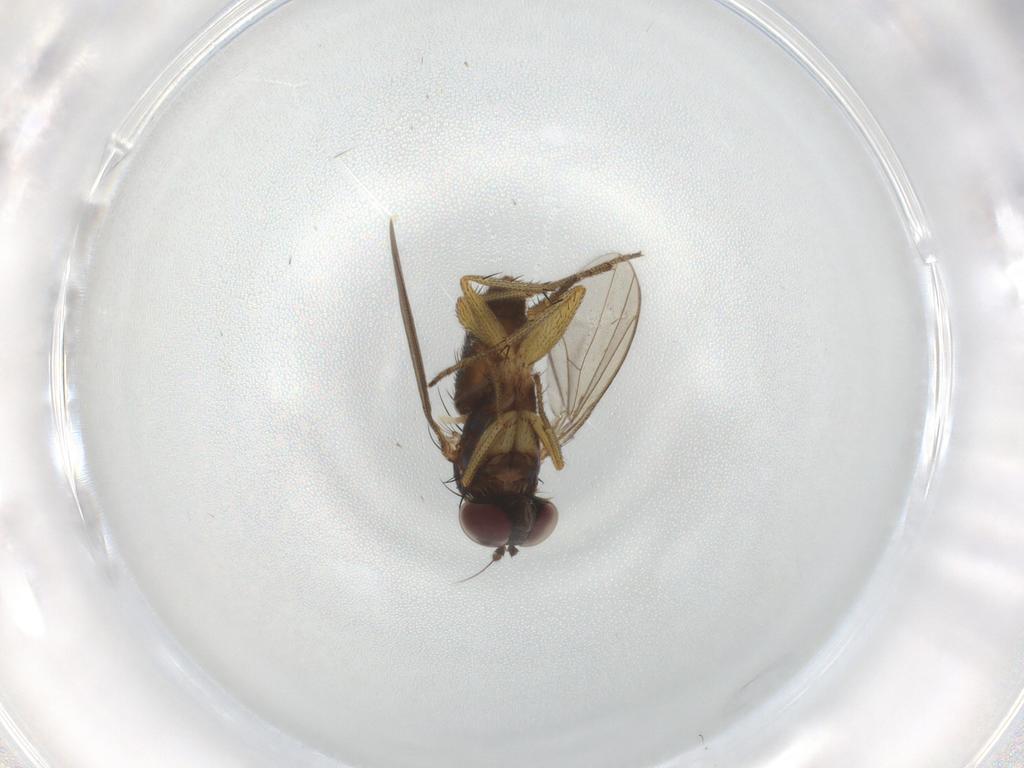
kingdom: Animalia
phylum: Arthropoda
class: Insecta
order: Diptera
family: Dolichopodidae
